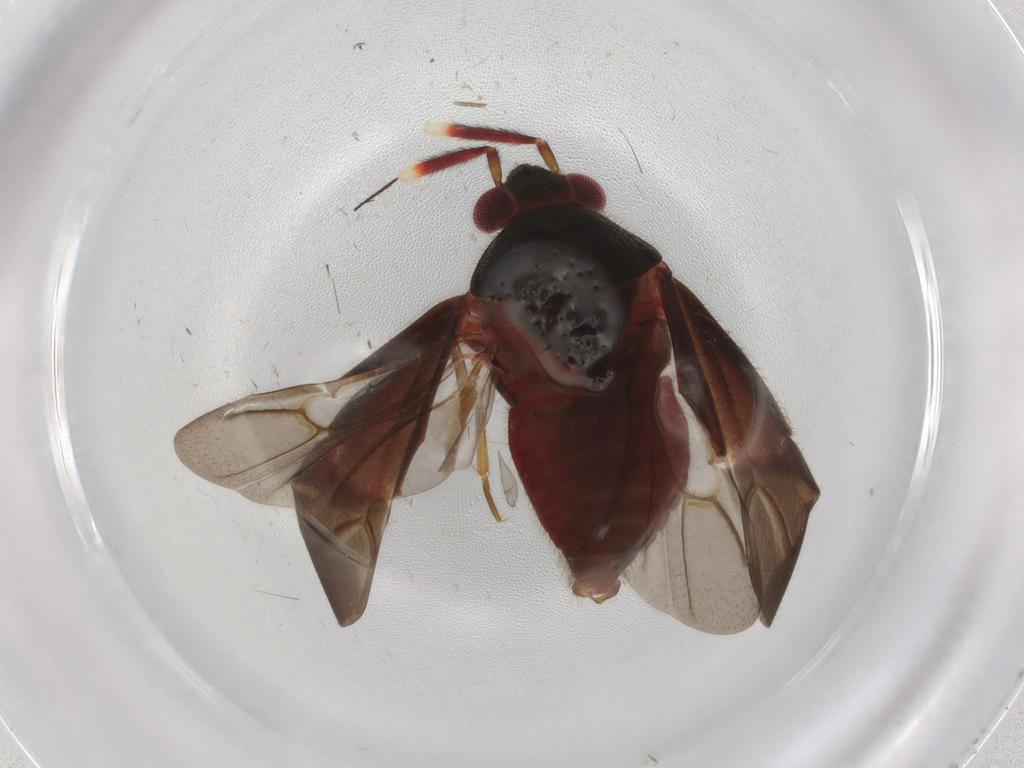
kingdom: Animalia
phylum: Arthropoda
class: Insecta
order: Hemiptera
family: Miridae
